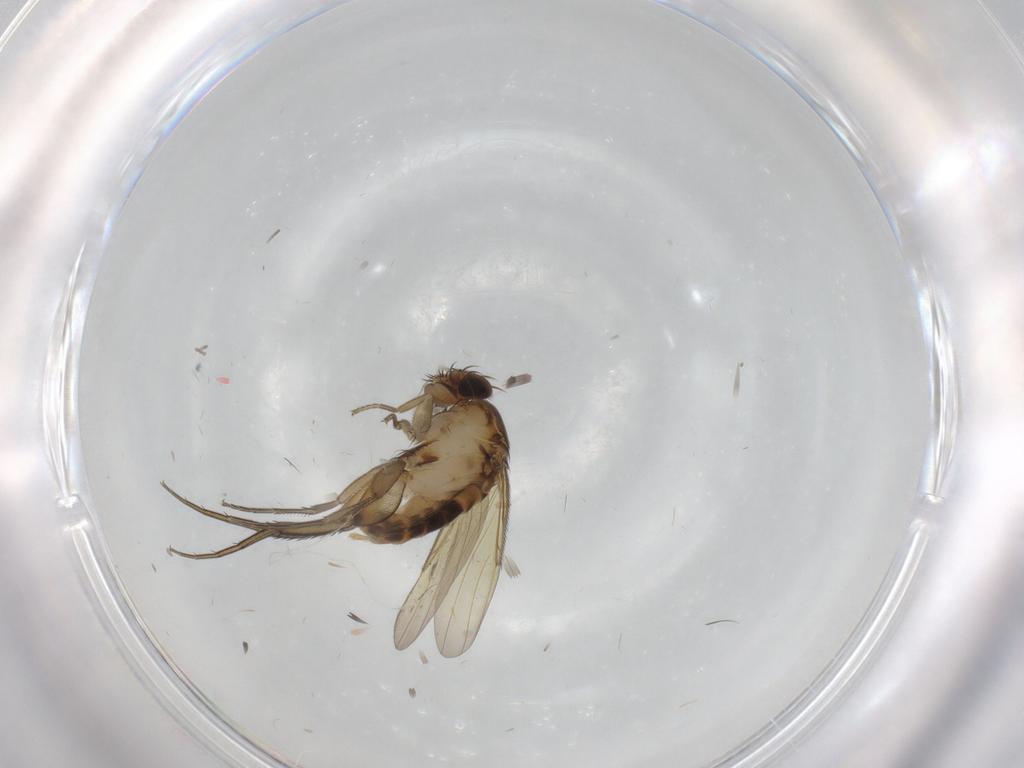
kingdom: Animalia
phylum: Arthropoda
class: Insecta
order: Diptera
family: Phoridae
